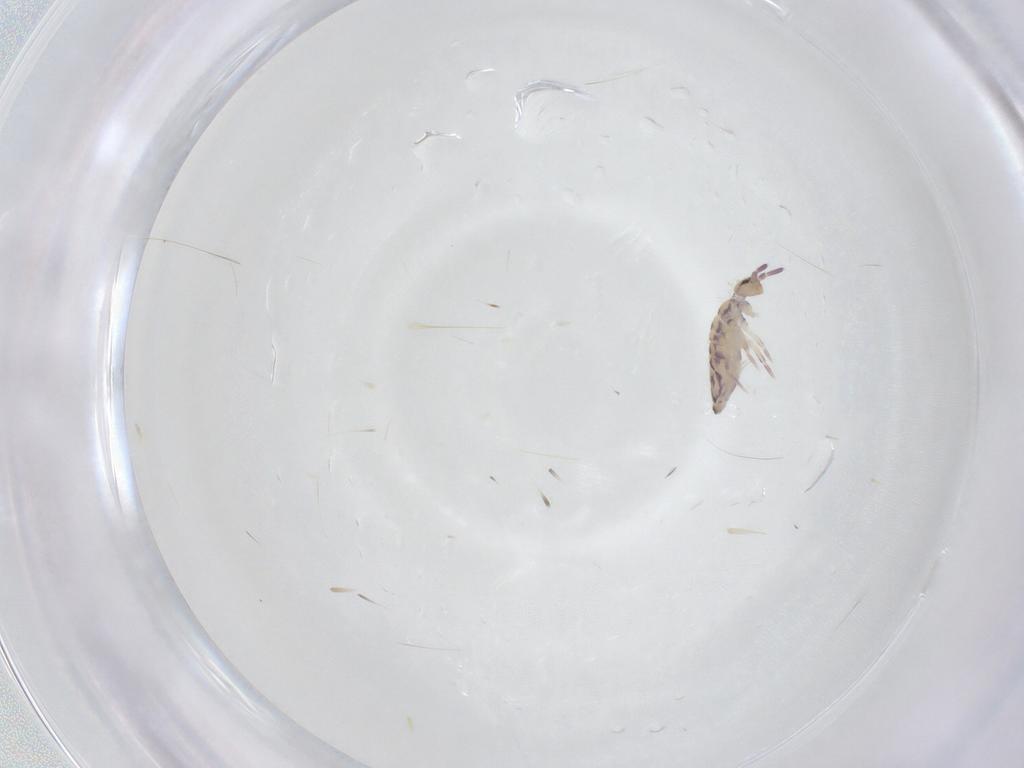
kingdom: Animalia
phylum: Arthropoda
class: Collembola
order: Entomobryomorpha
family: Entomobryidae
